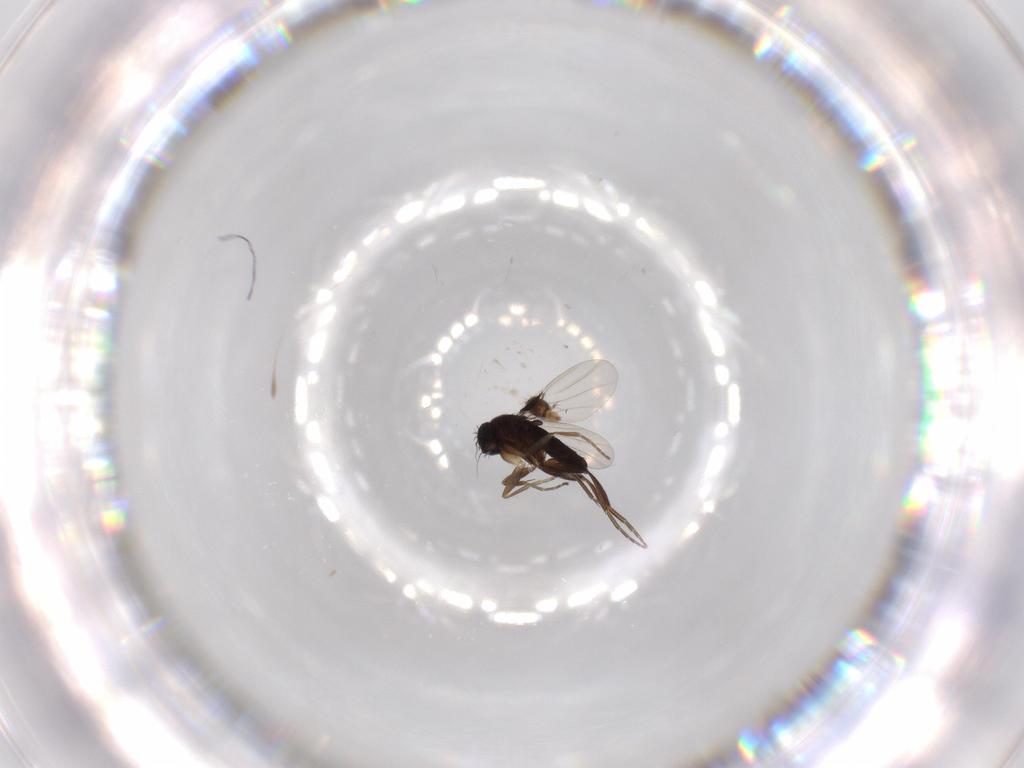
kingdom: Animalia
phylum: Arthropoda
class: Insecta
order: Diptera
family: Phoridae
